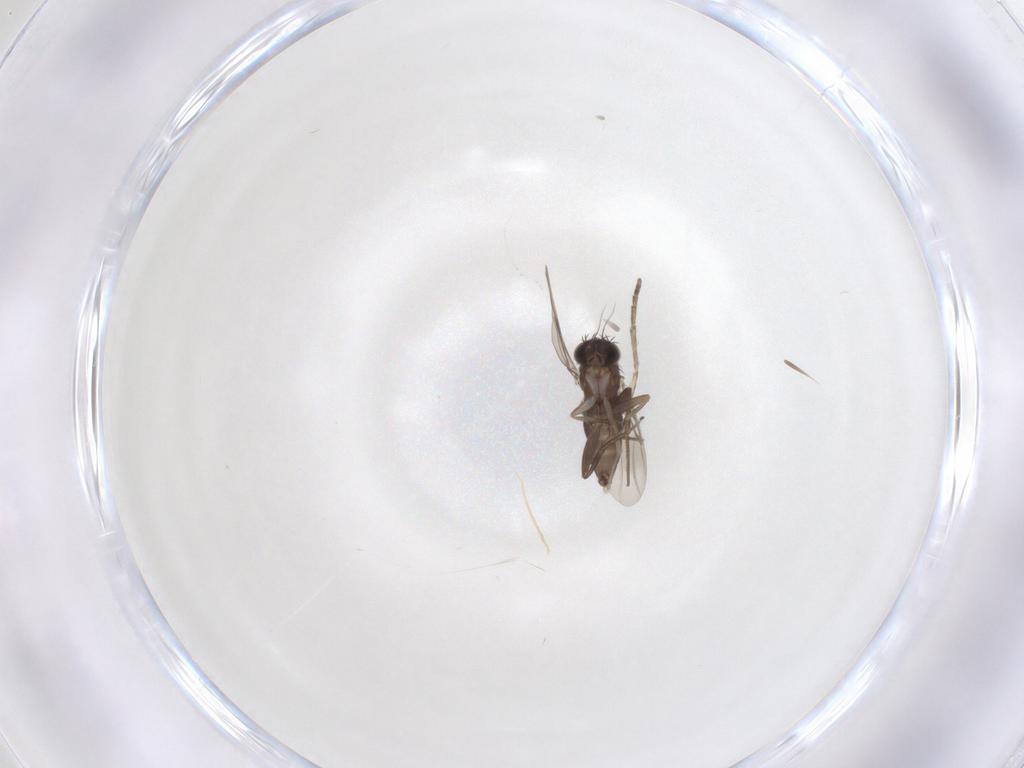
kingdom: Animalia
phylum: Arthropoda
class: Insecta
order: Diptera
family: Phoridae
